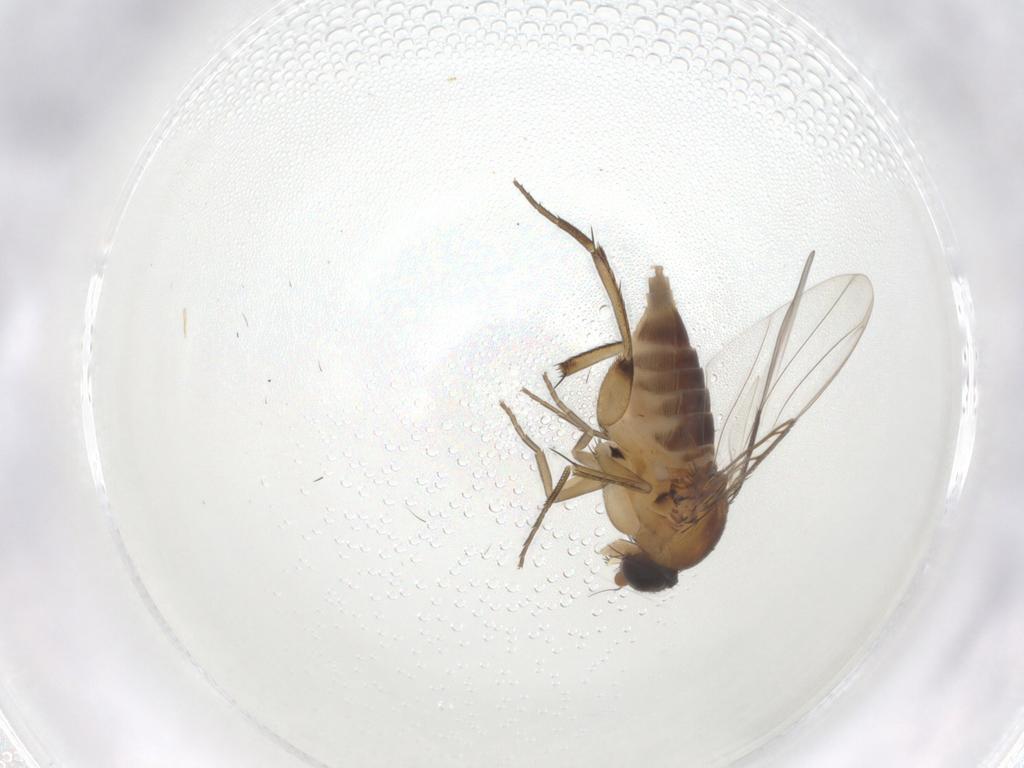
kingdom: Animalia
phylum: Arthropoda
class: Insecta
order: Diptera
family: Phoridae
